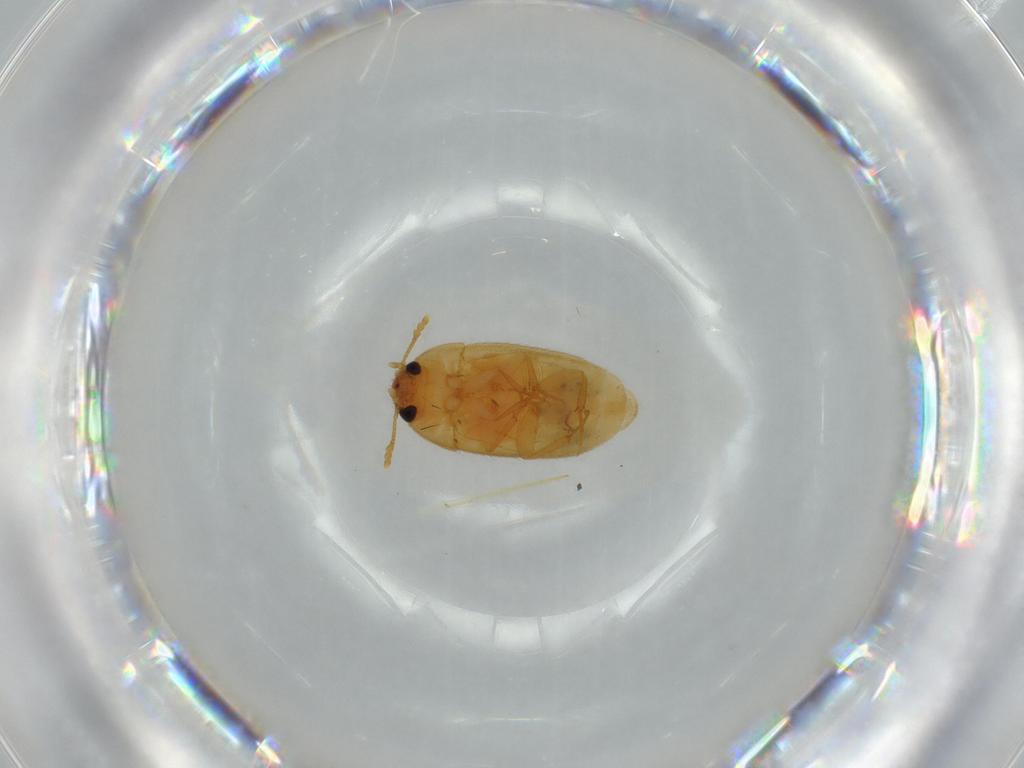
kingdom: Animalia
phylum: Arthropoda
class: Insecta
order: Coleoptera
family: Mycetophagidae
